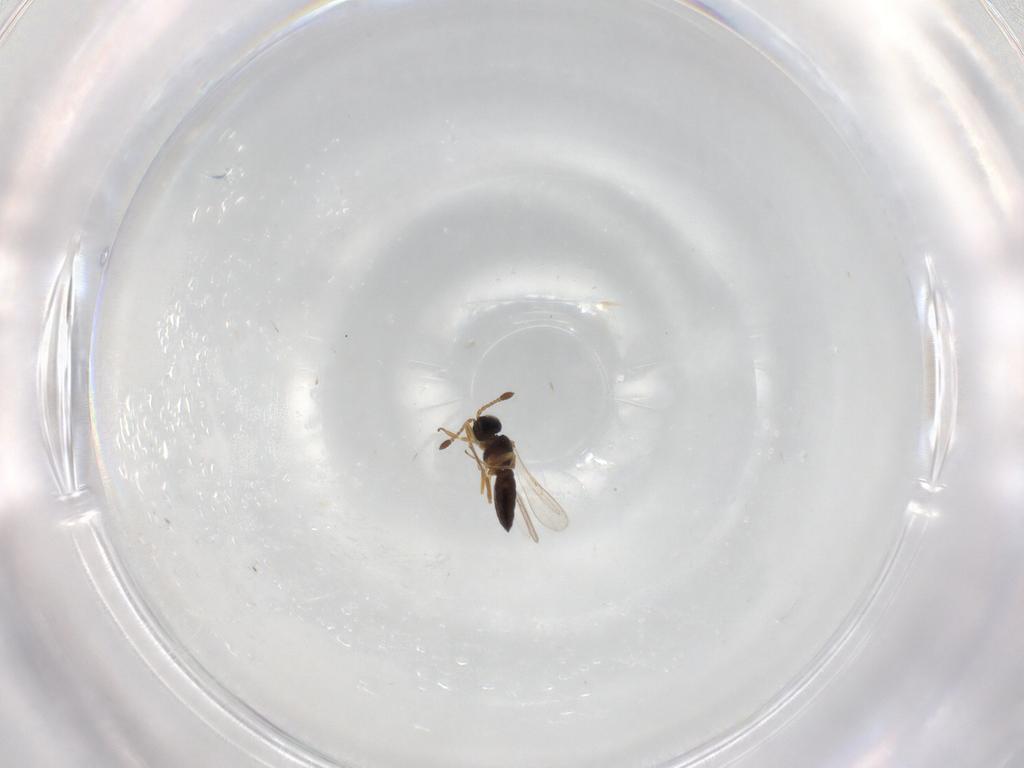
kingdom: Animalia
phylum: Arthropoda
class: Insecta
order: Hymenoptera
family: Scelionidae
